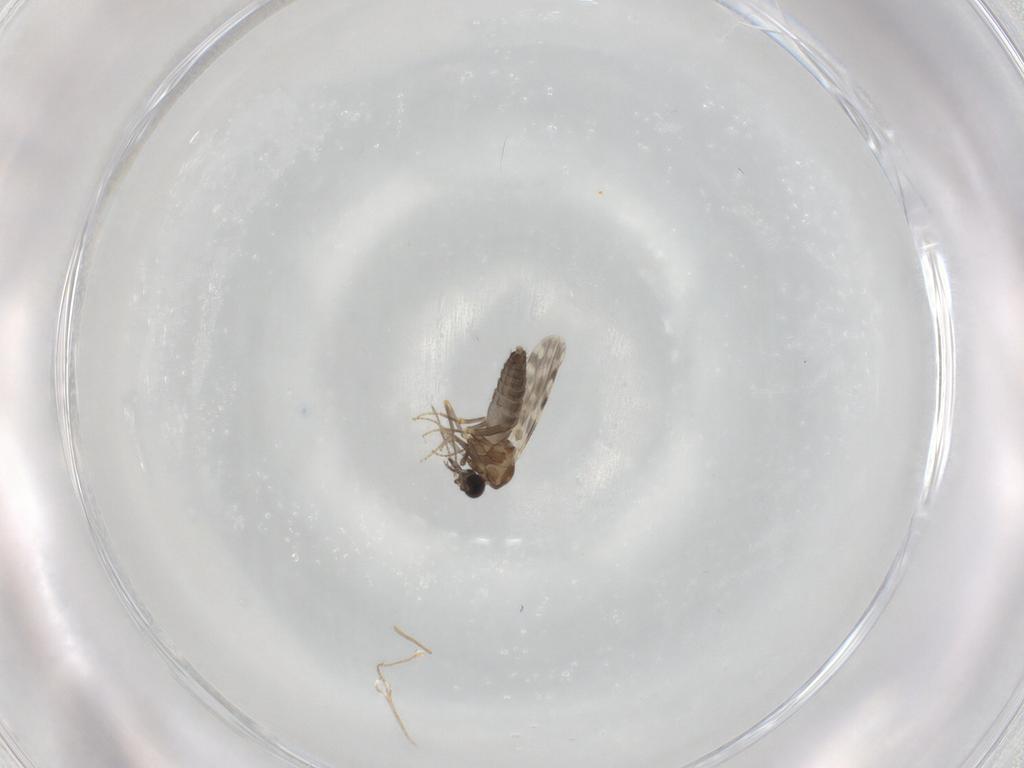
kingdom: Animalia
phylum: Arthropoda
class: Insecta
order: Diptera
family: Ceratopogonidae
